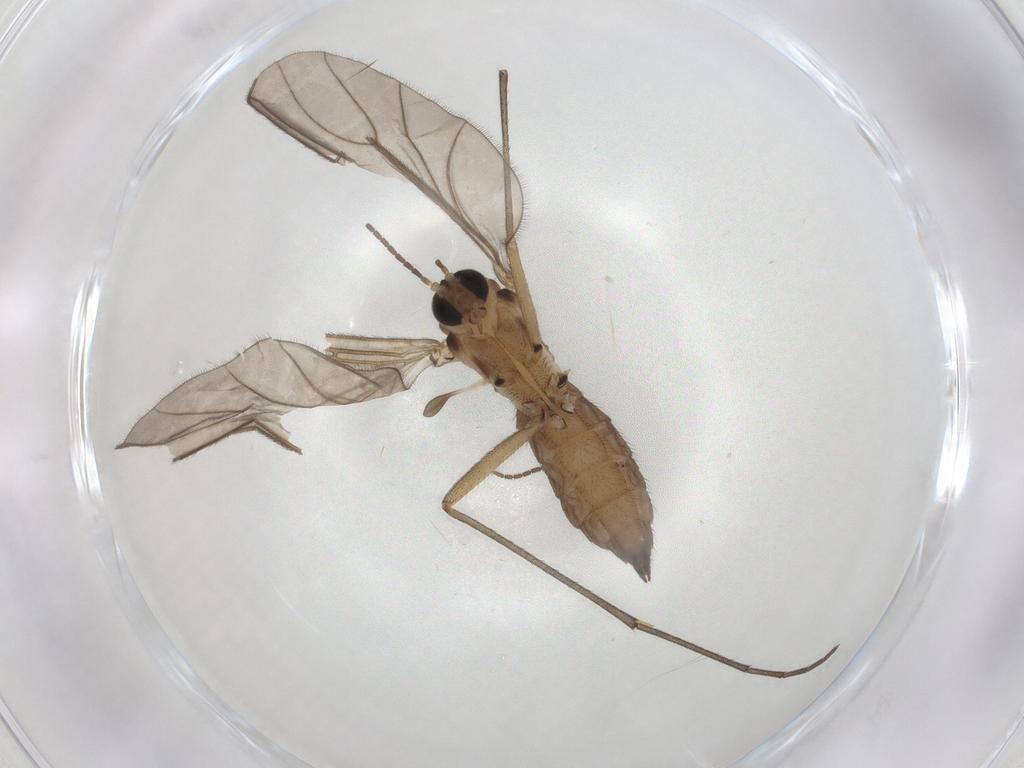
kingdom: Animalia
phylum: Arthropoda
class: Insecta
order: Diptera
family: Sciaridae
